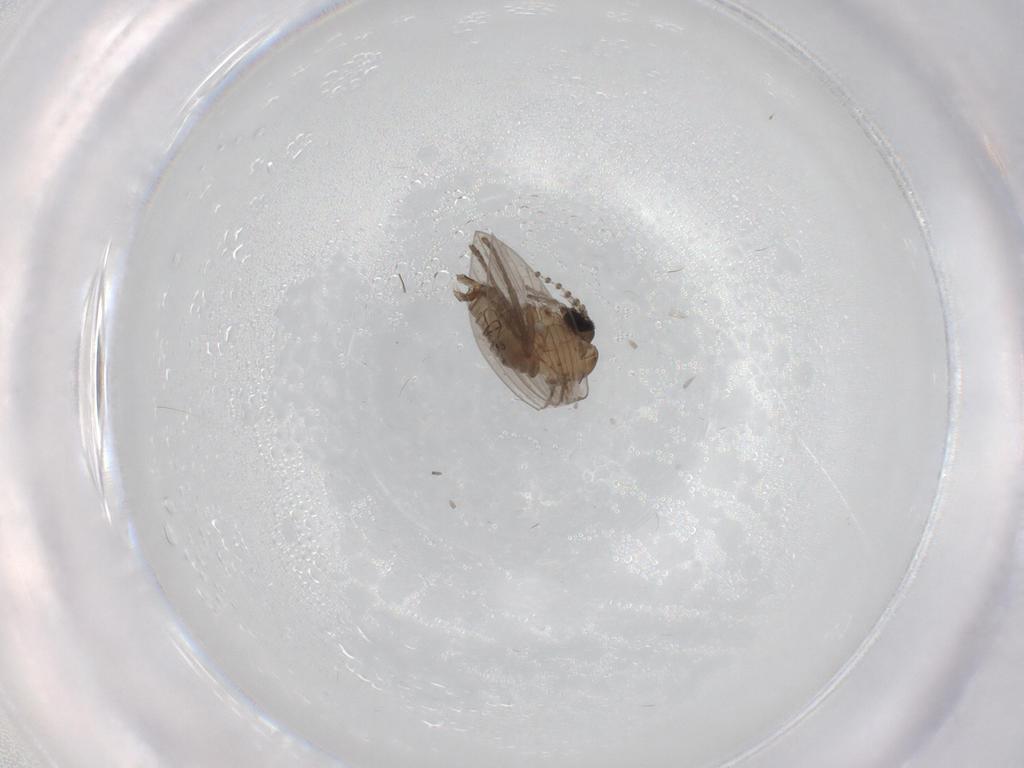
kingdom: Animalia
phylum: Arthropoda
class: Insecta
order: Diptera
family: Psychodidae
